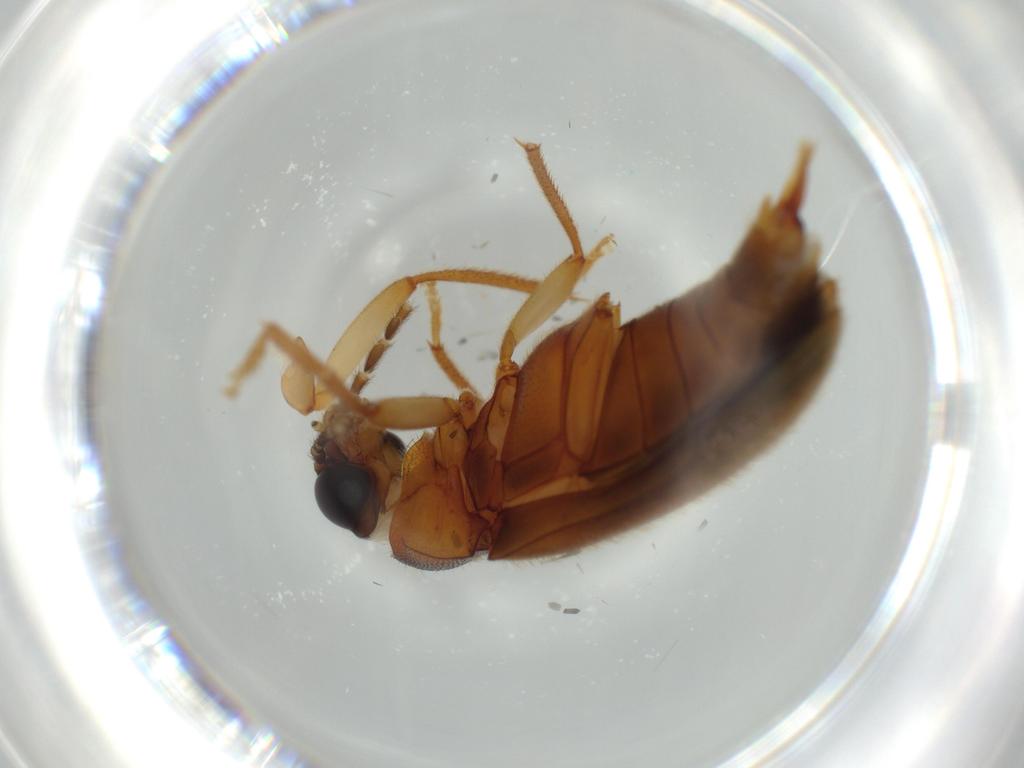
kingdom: Animalia
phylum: Arthropoda
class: Insecta
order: Coleoptera
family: Ptilodactylidae
